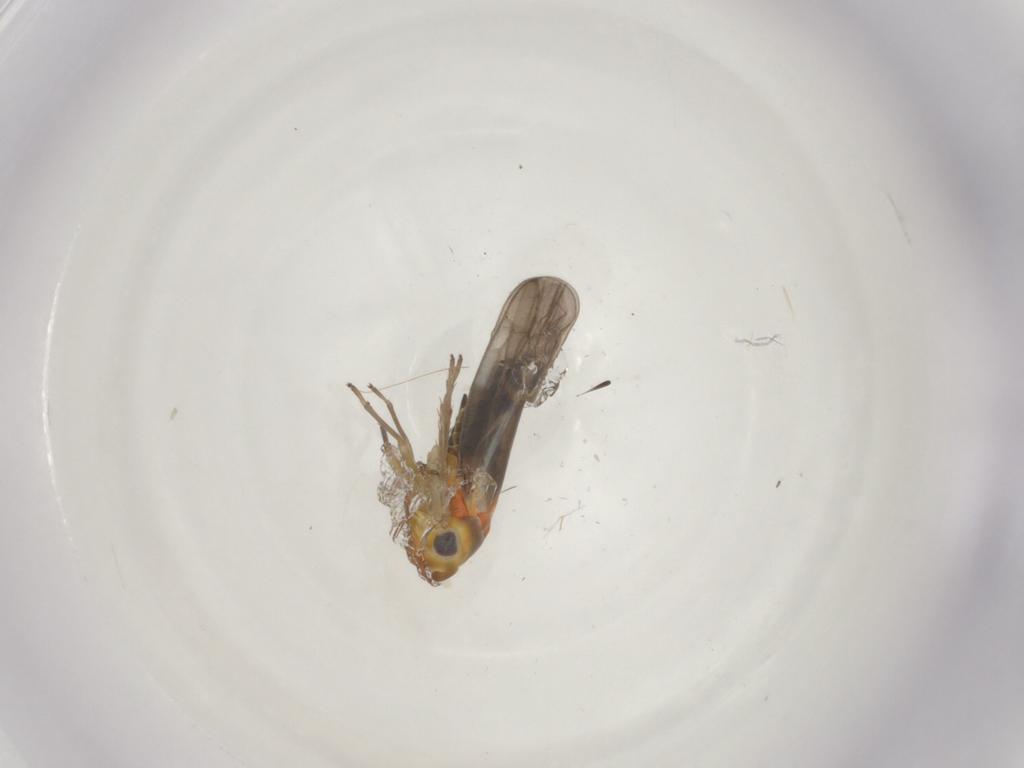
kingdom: Animalia
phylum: Arthropoda
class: Insecta
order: Hemiptera
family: Cicadellidae
